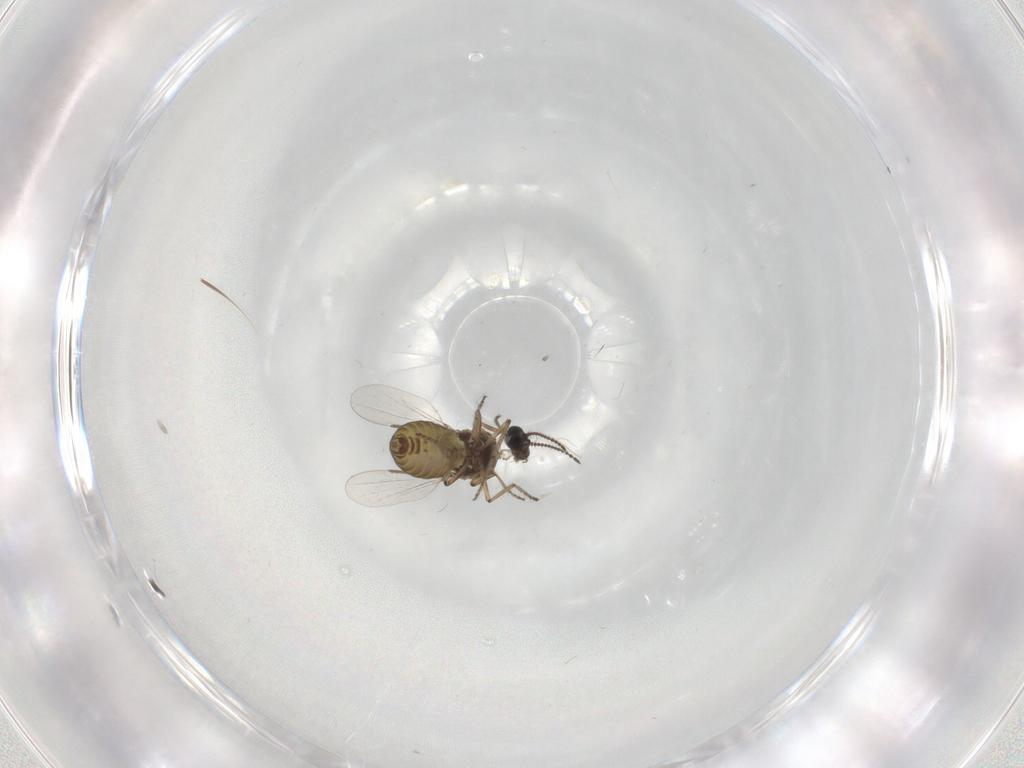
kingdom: Animalia
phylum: Arthropoda
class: Insecta
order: Diptera
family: Ceratopogonidae
